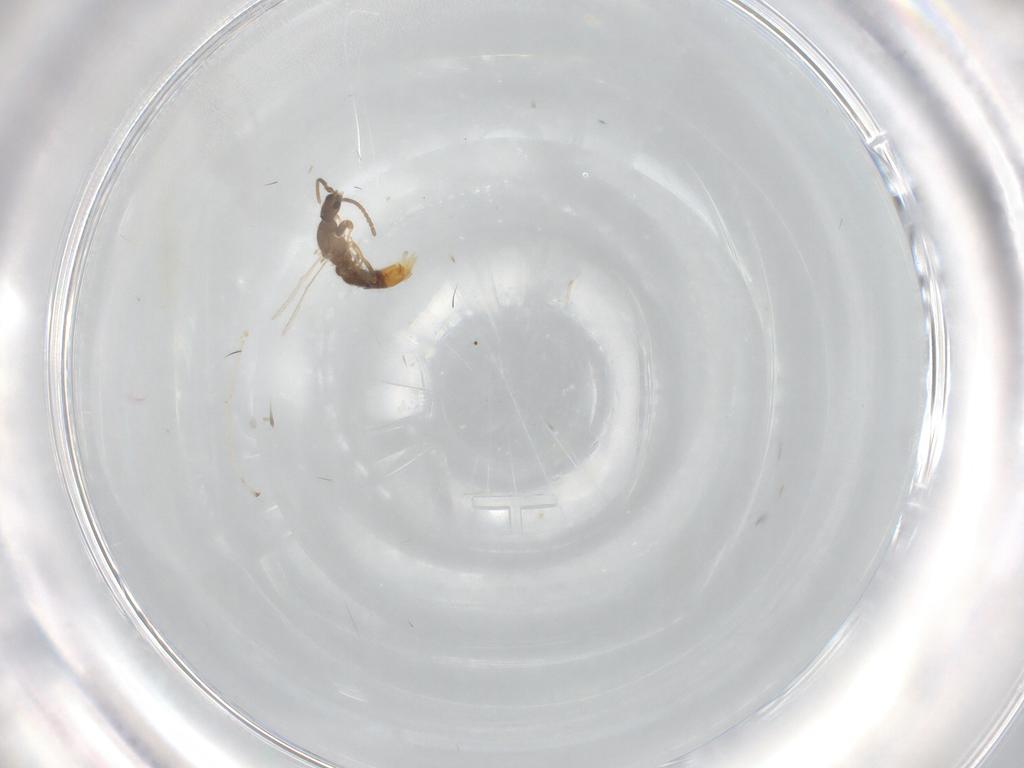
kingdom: Animalia
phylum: Arthropoda
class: Insecta
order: Hymenoptera
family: Formicidae
